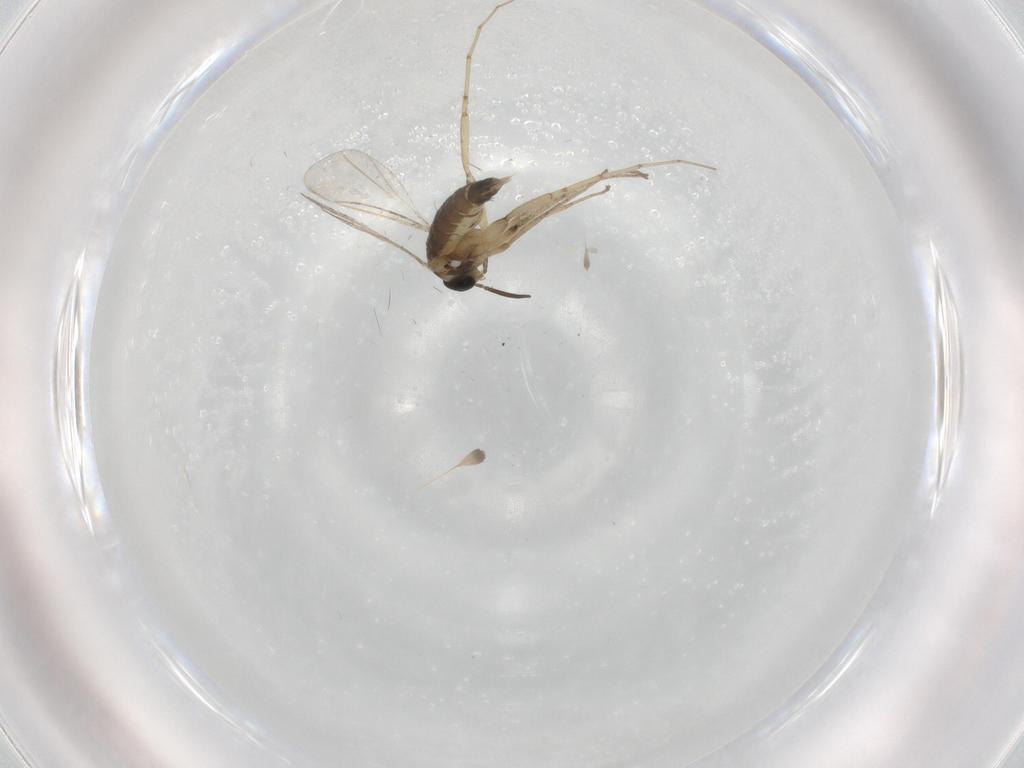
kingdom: Animalia
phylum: Arthropoda
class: Insecta
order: Diptera
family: Cecidomyiidae
